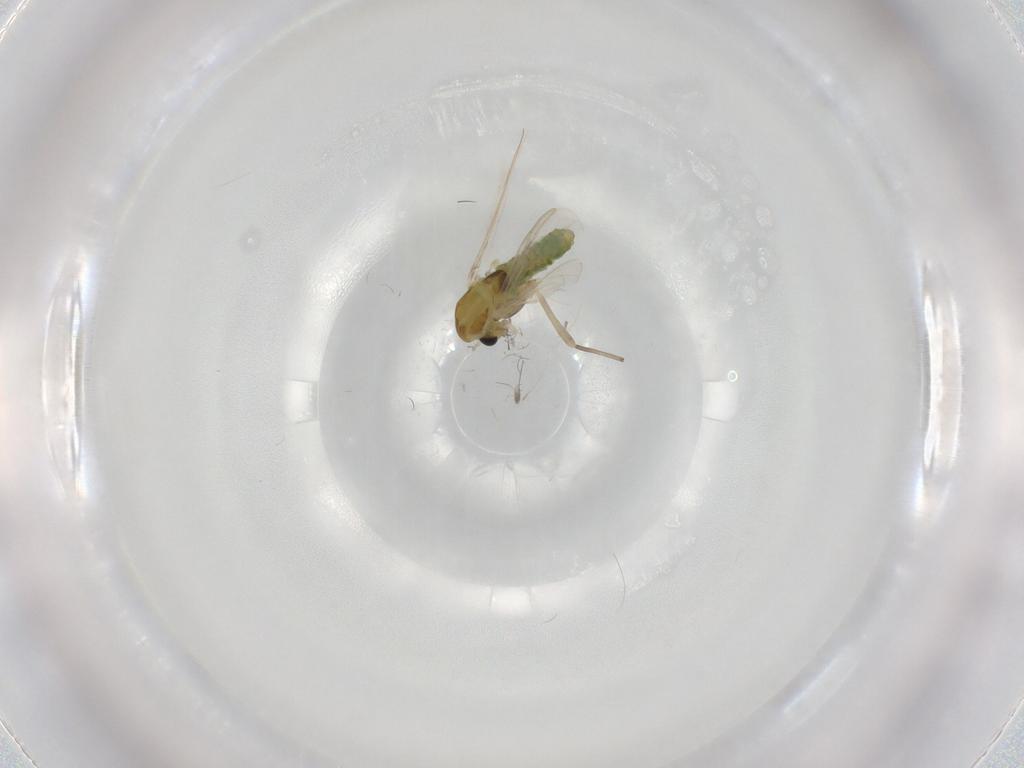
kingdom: Animalia
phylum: Arthropoda
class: Insecta
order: Diptera
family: Chironomidae
